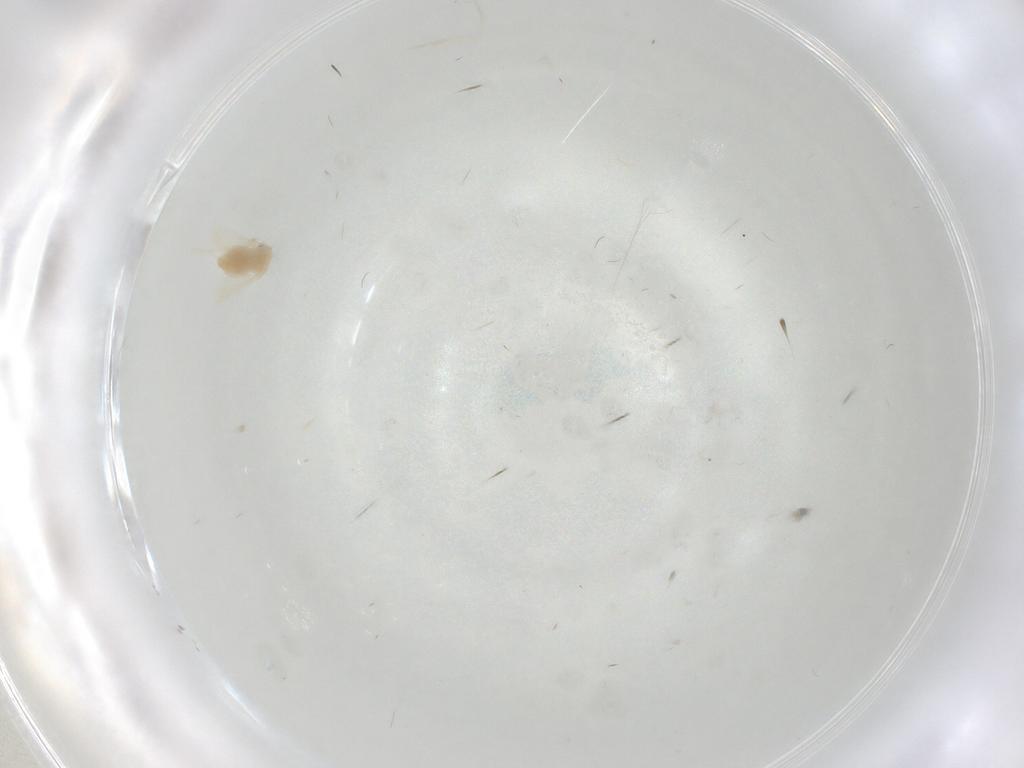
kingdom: Animalia
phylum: Arthropoda
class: Insecta
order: Hemiptera
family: Aleyrodidae
